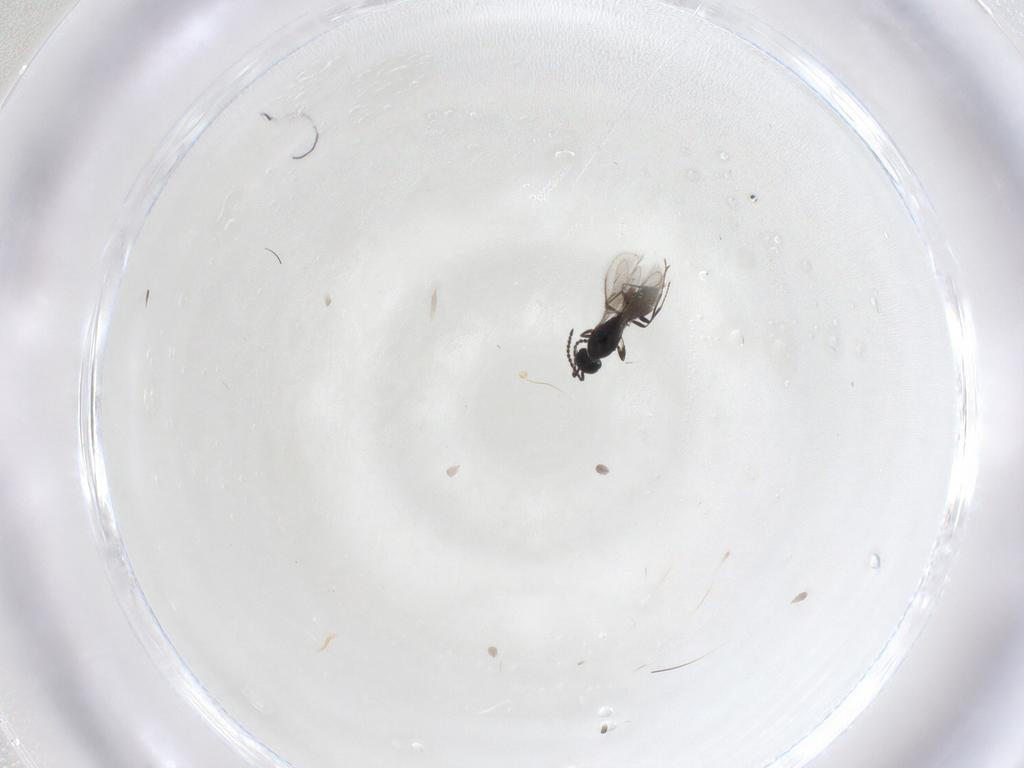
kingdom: Animalia
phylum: Arthropoda
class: Insecta
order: Hymenoptera
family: Scelionidae
